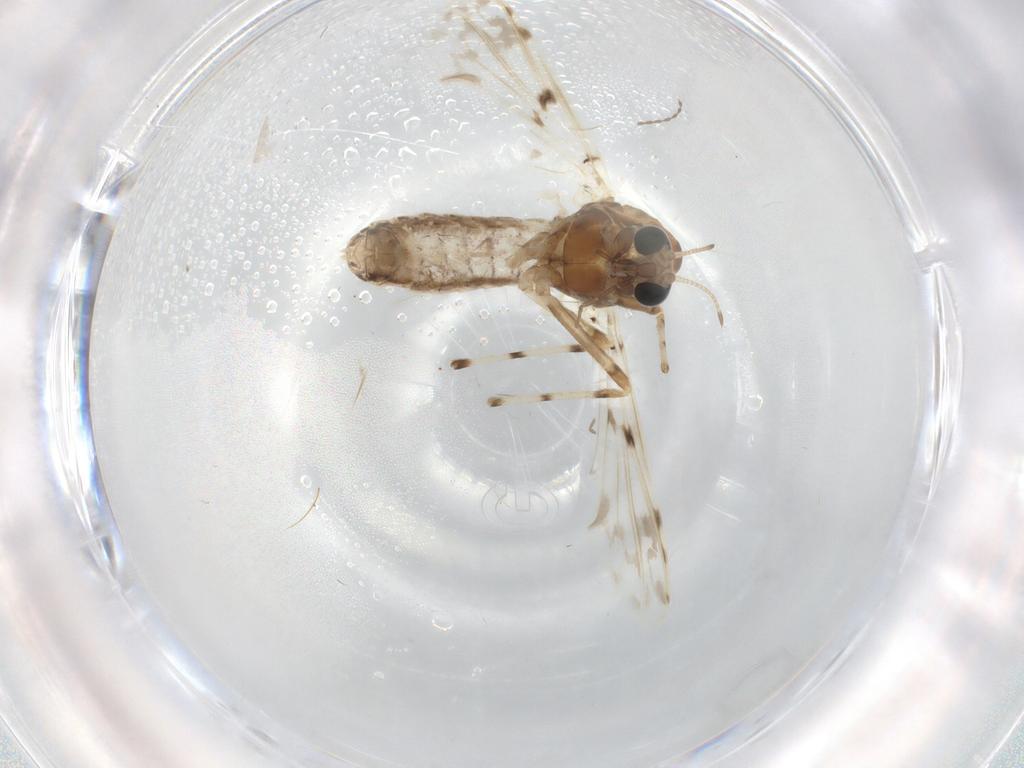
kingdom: Animalia
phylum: Arthropoda
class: Insecta
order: Diptera
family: Chironomidae
